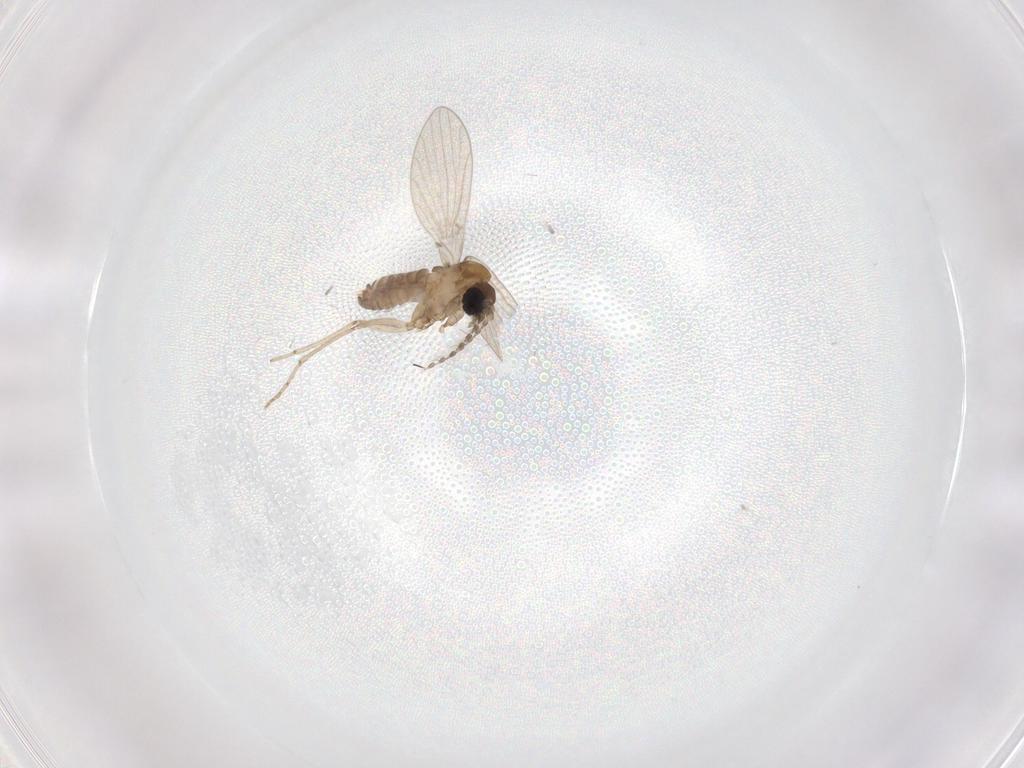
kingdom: Animalia
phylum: Arthropoda
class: Insecta
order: Diptera
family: Psychodidae
